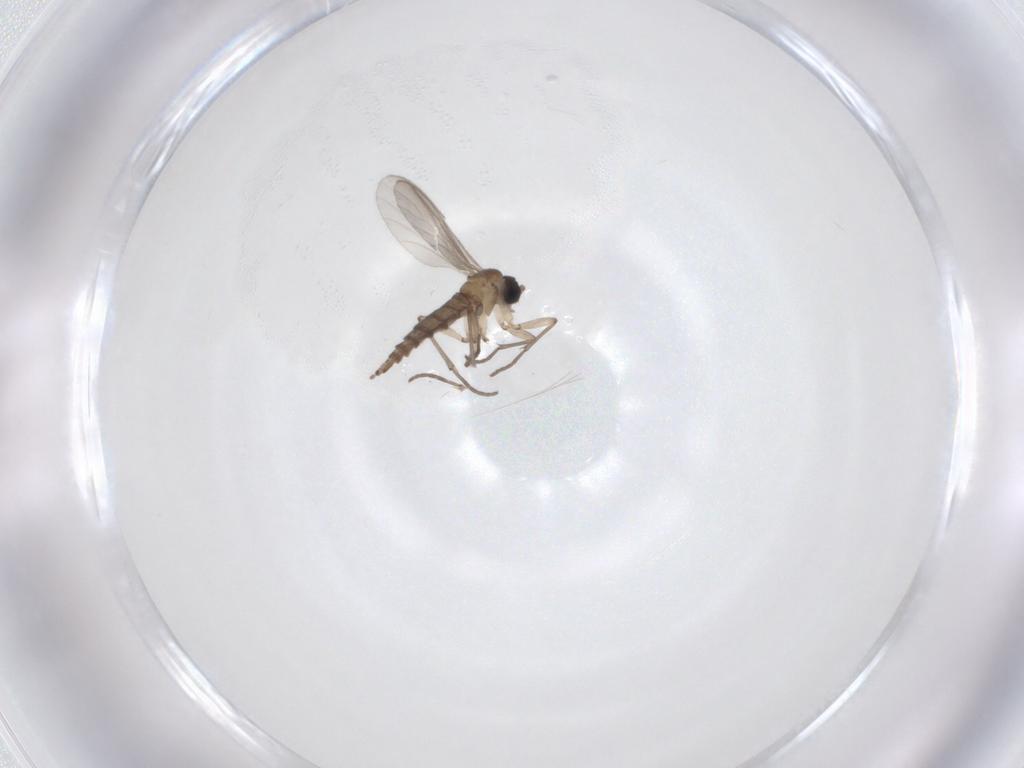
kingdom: Animalia
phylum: Arthropoda
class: Insecta
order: Diptera
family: Sciaridae
